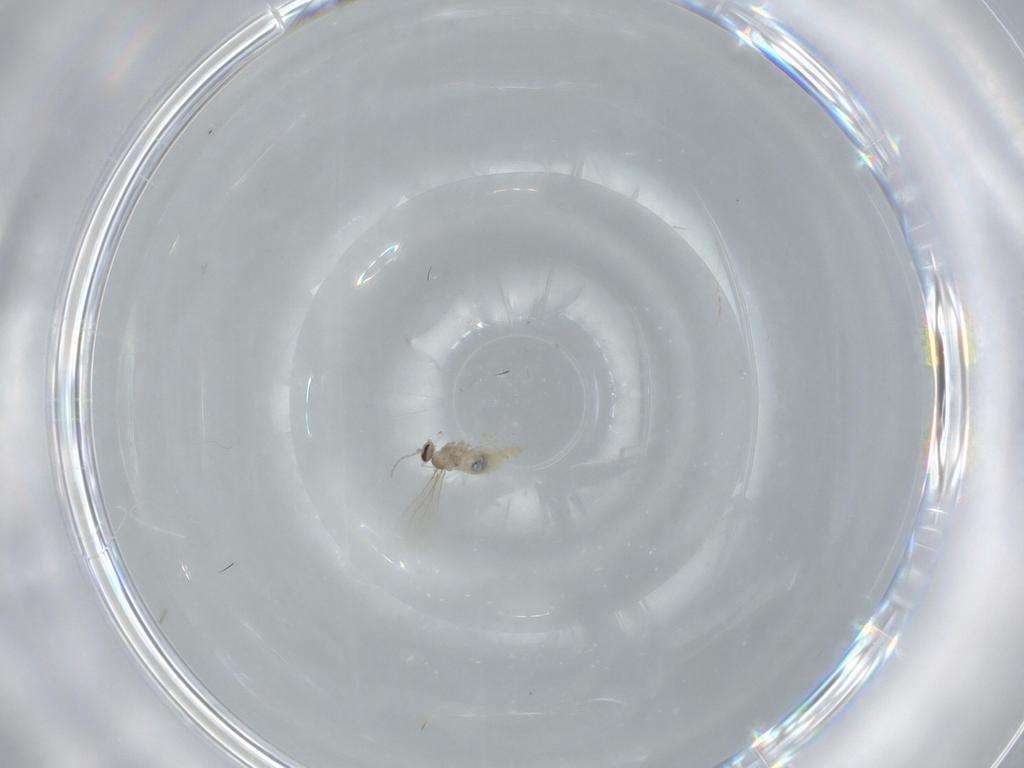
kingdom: Animalia
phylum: Arthropoda
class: Insecta
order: Diptera
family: Cecidomyiidae
